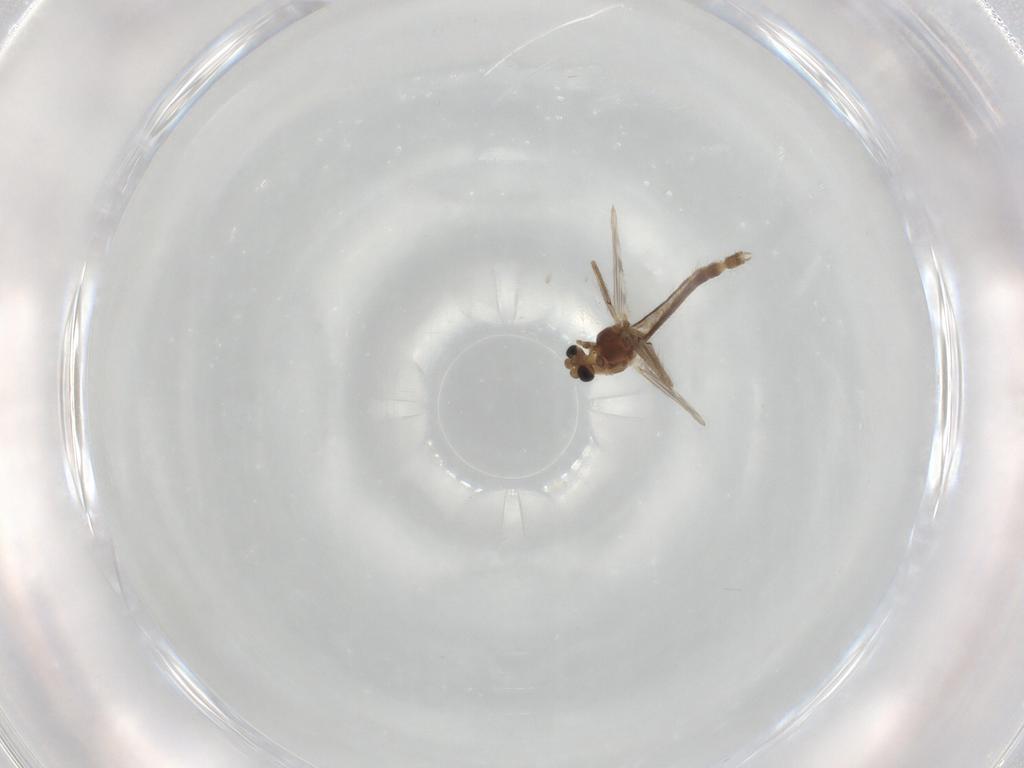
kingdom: Animalia
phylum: Arthropoda
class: Insecta
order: Diptera
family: Chironomidae
